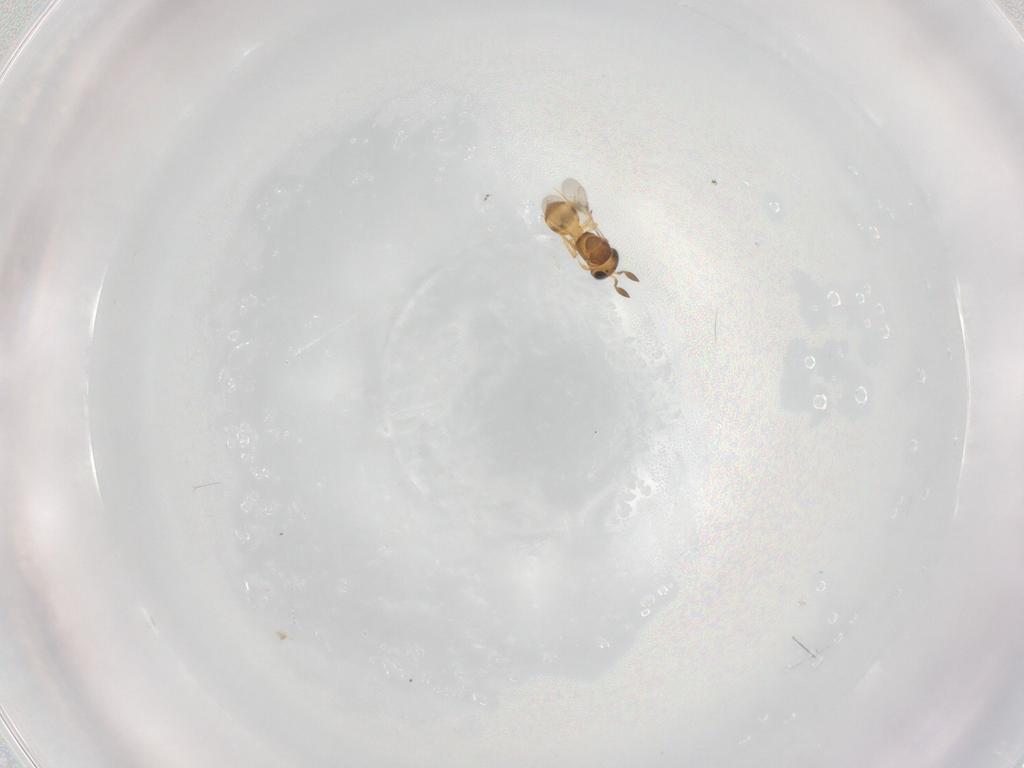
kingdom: Animalia
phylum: Arthropoda
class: Insecta
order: Hymenoptera
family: Scelionidae
